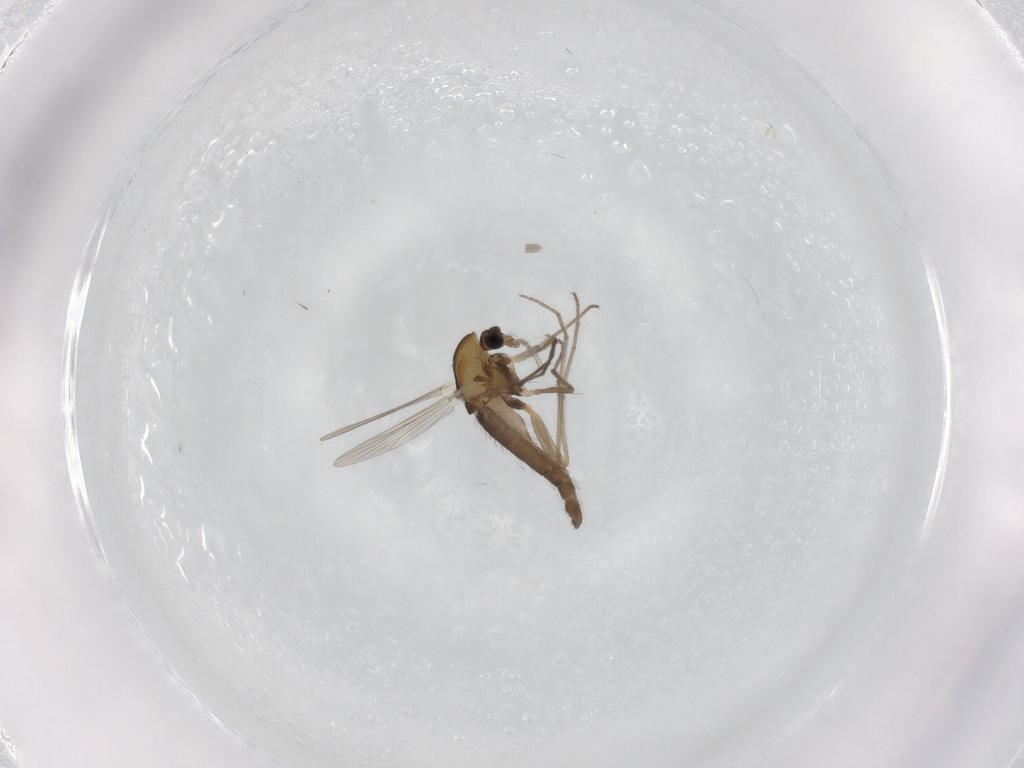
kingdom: Animalia
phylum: Arthropoda
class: Insecta
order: Diptera
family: Chironomidae
